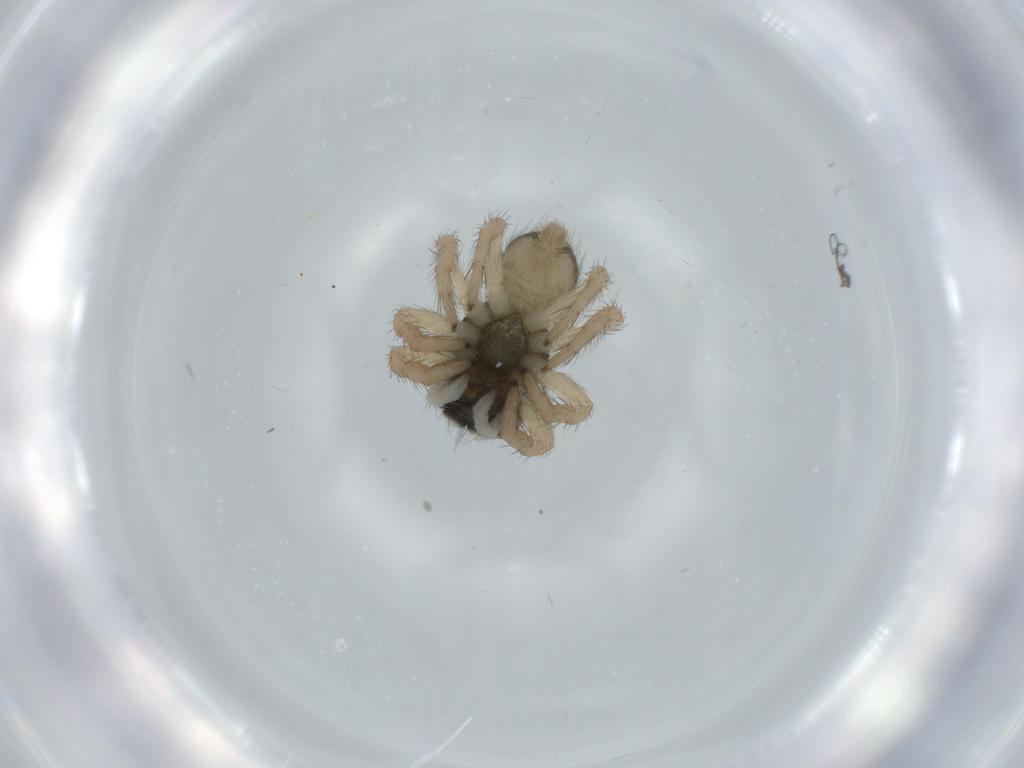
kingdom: Animalia
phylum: Arthropoda
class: Arachnida
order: Araneae
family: Salticidae
